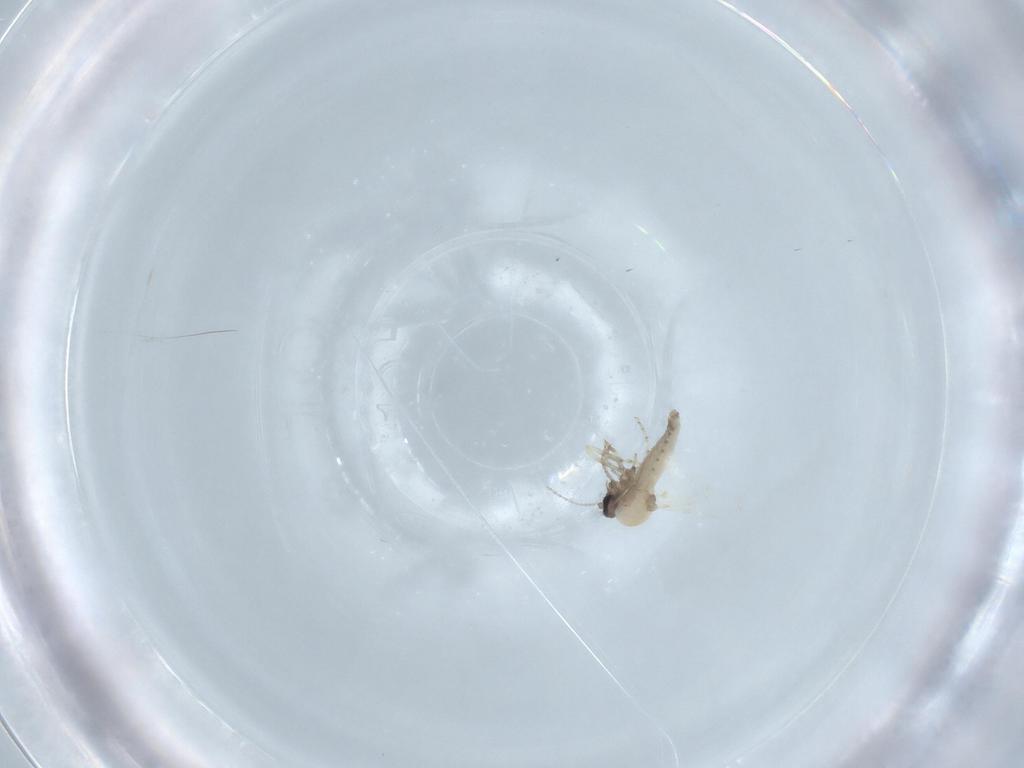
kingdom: Animalia
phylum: Arthropoda
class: Insecta
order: Diptera
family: Ceratopogonidae
